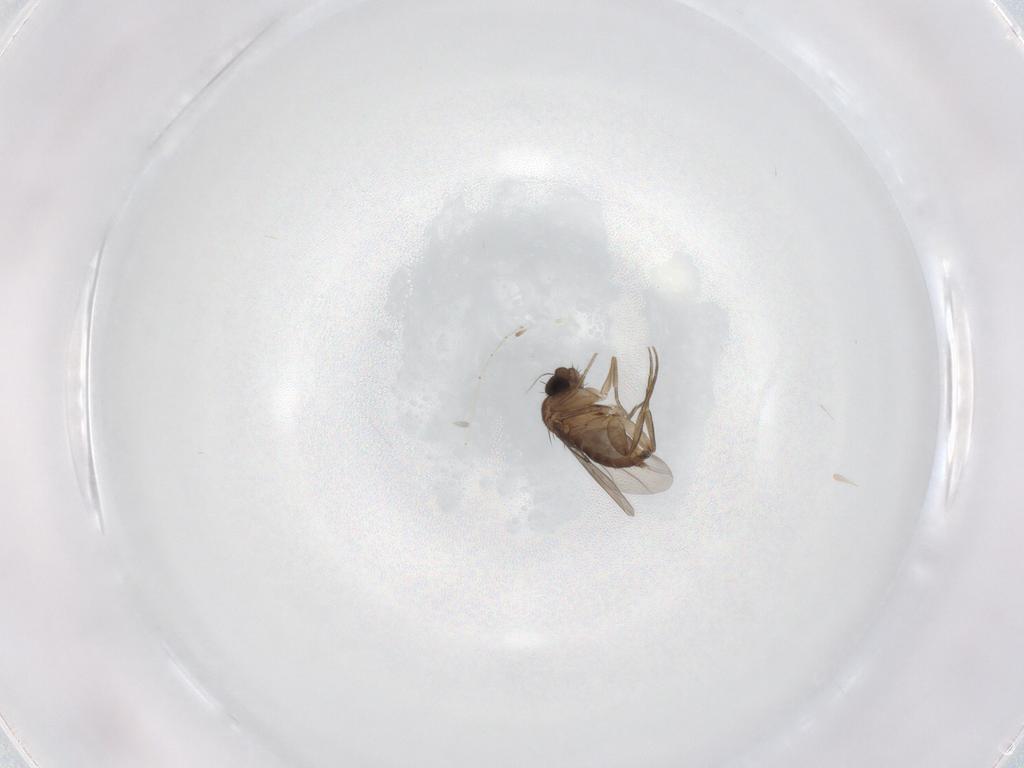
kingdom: Animalia
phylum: Arthropoda
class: Insecta
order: Diptera
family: Phoridae
